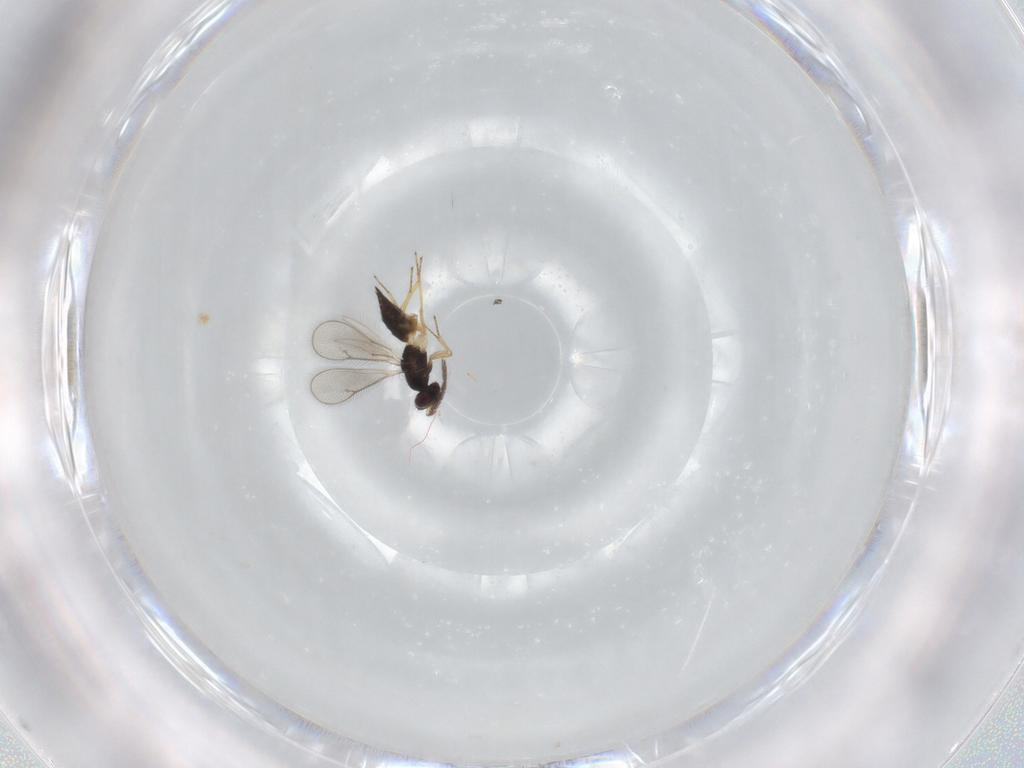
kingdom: Animalia
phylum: Arthropoda
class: Insecta
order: Hymenoptera
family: Eulophidae
